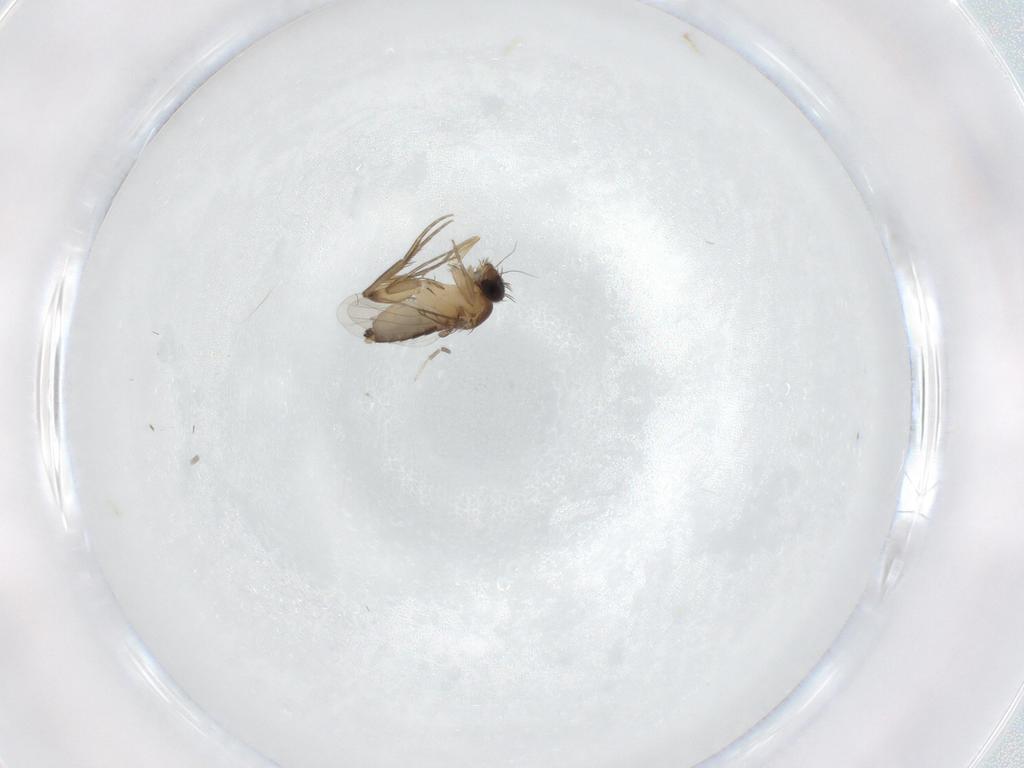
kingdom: Animalia
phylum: Arthropoda
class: Insecta
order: Diptera
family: Phoridae
